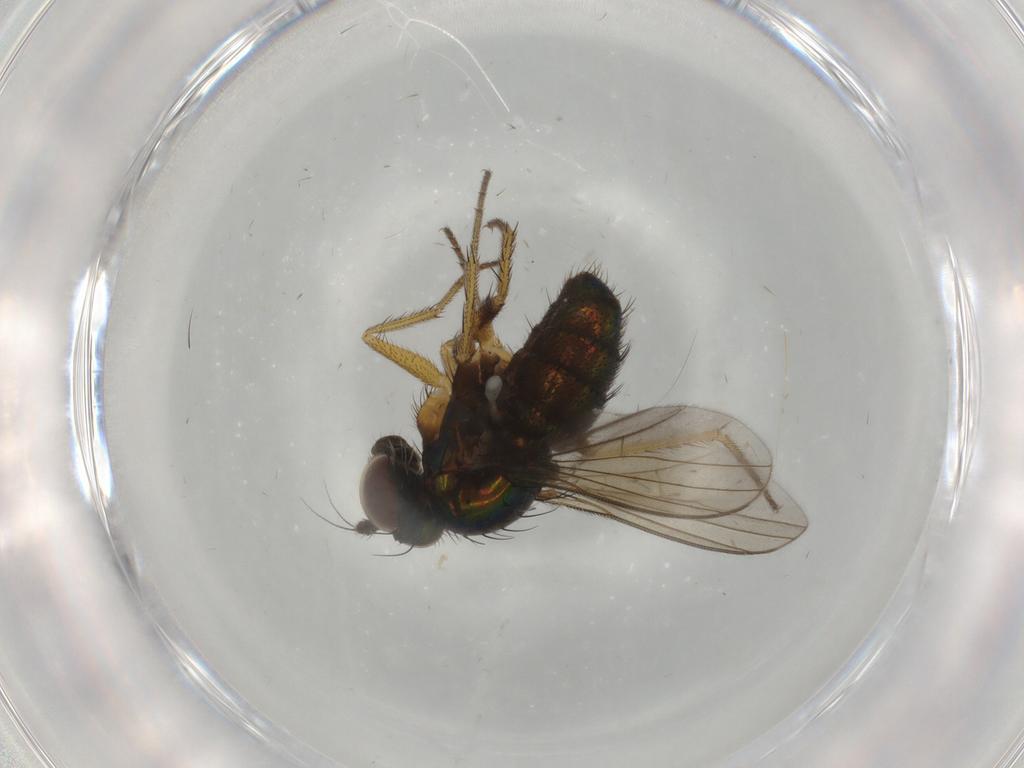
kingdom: Animalia
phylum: Arthropoda
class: Insecta
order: Diptera
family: Dolichopodidae
